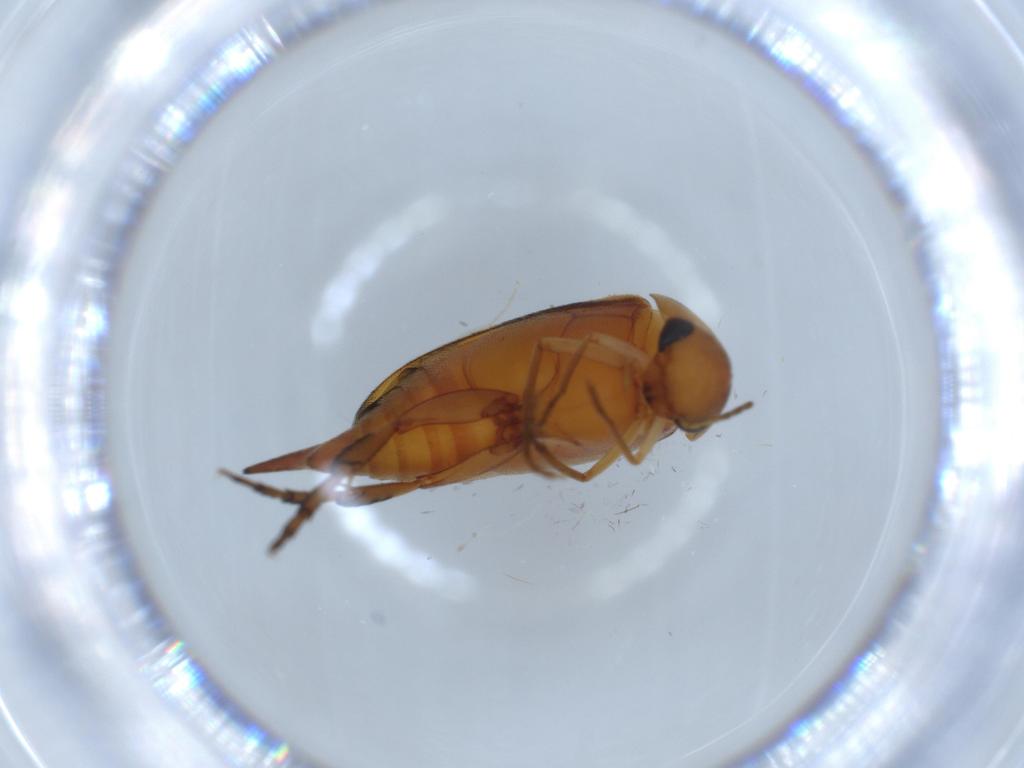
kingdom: Animalia
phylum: Arthropoda
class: Insecta
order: Coleoptera
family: Mordellidae
